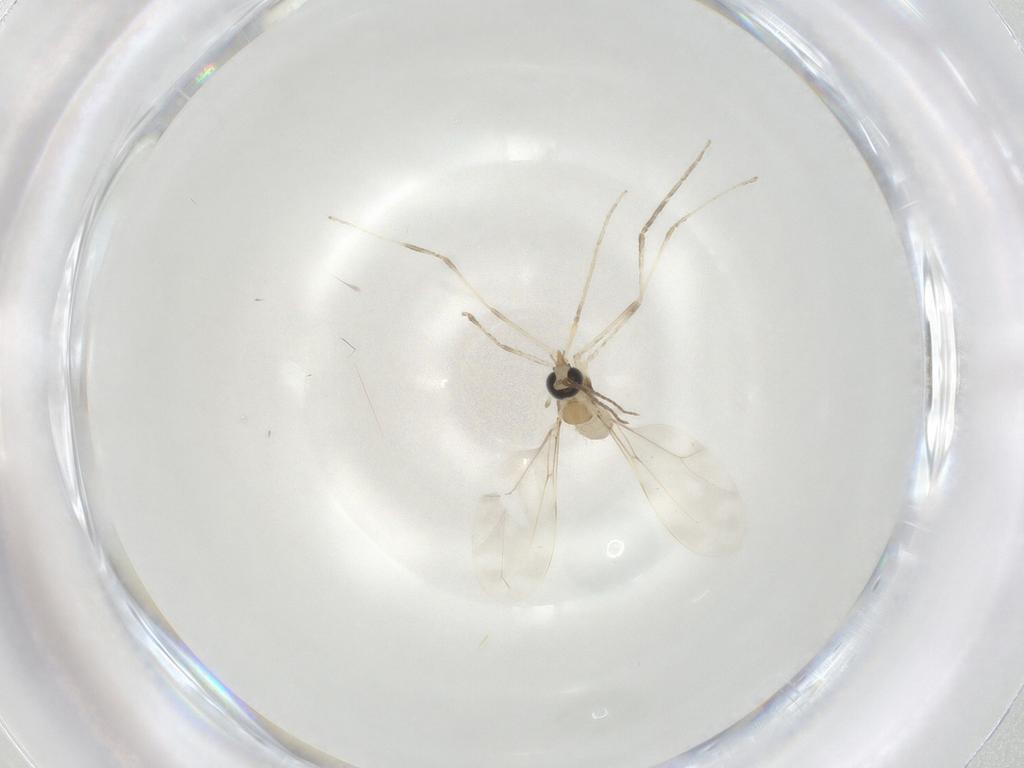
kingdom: Animalia
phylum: Arthropoda
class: Insecta
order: Diptera
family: Cecidomyiidae
